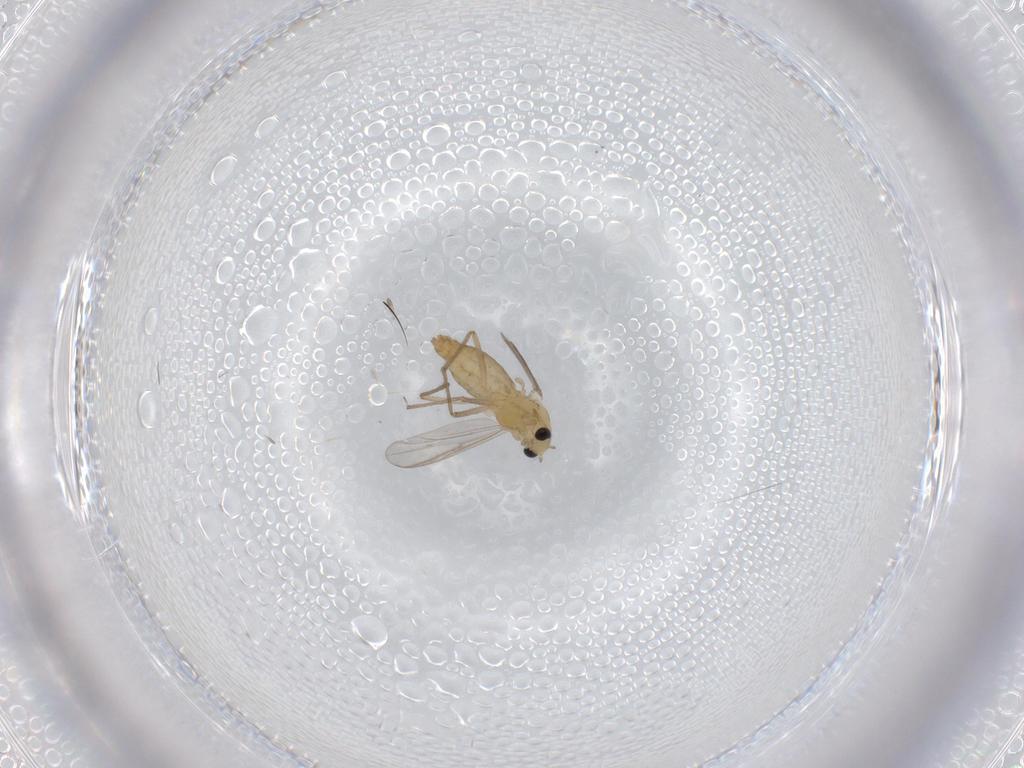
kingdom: Animalia
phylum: Arthropoda
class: Insecta
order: Diptera
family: Chironomidae
